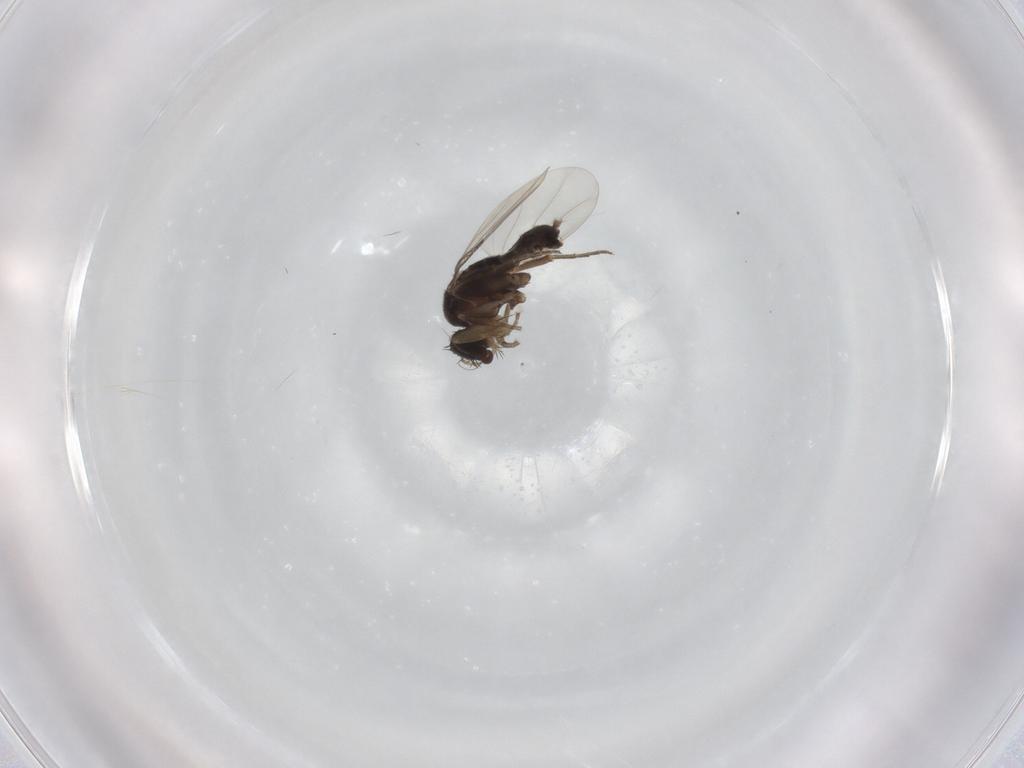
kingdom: Animalia
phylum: Arthropoda
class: Insecta
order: Diptera
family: Phoridae
